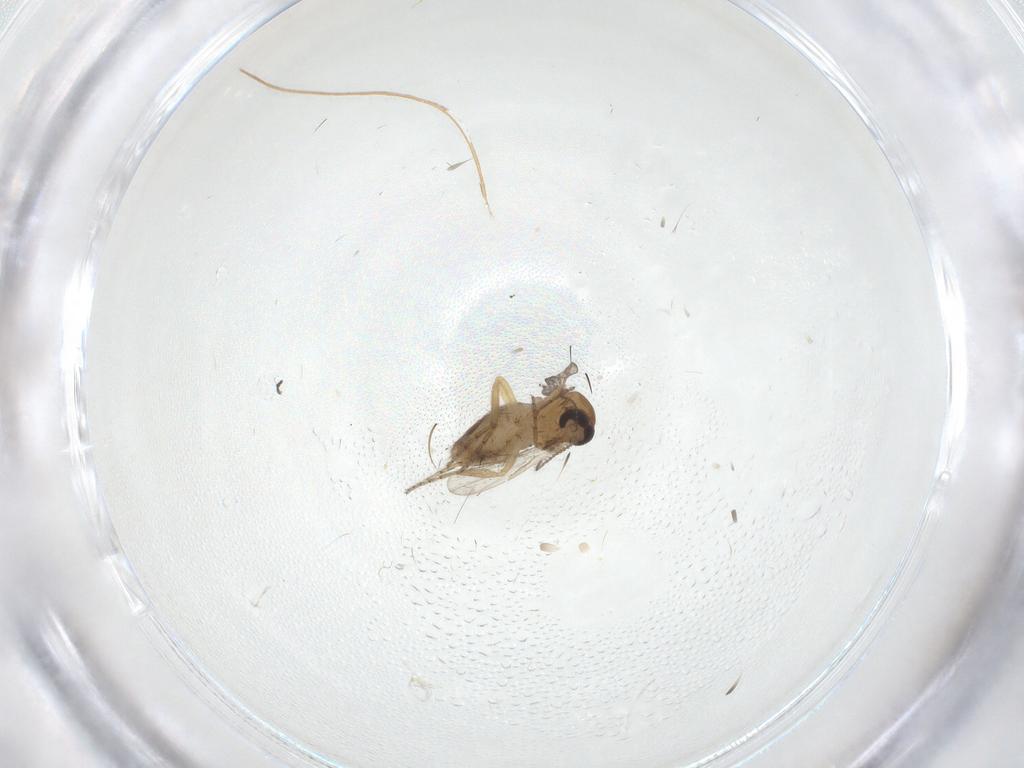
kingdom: Animalia
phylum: Arthropoda
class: Insecta
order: Diptera
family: Ceratopogonidae
